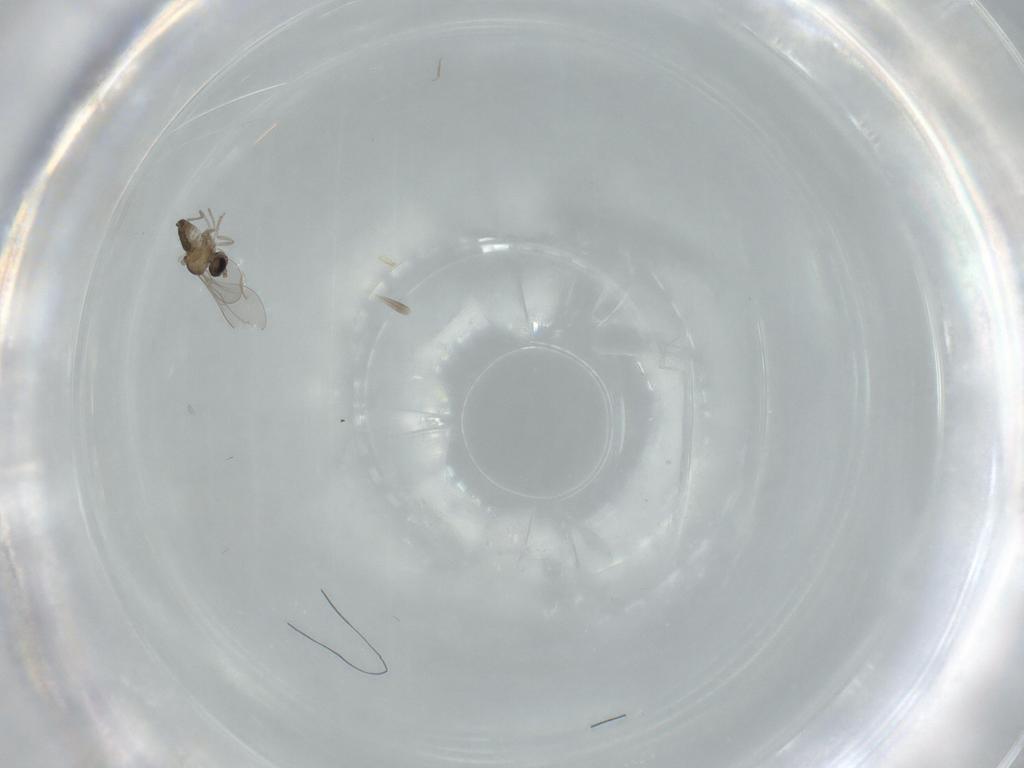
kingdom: Animalia
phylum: Arthropoda
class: Insecta
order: Diptera
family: Cecidomyiidae
